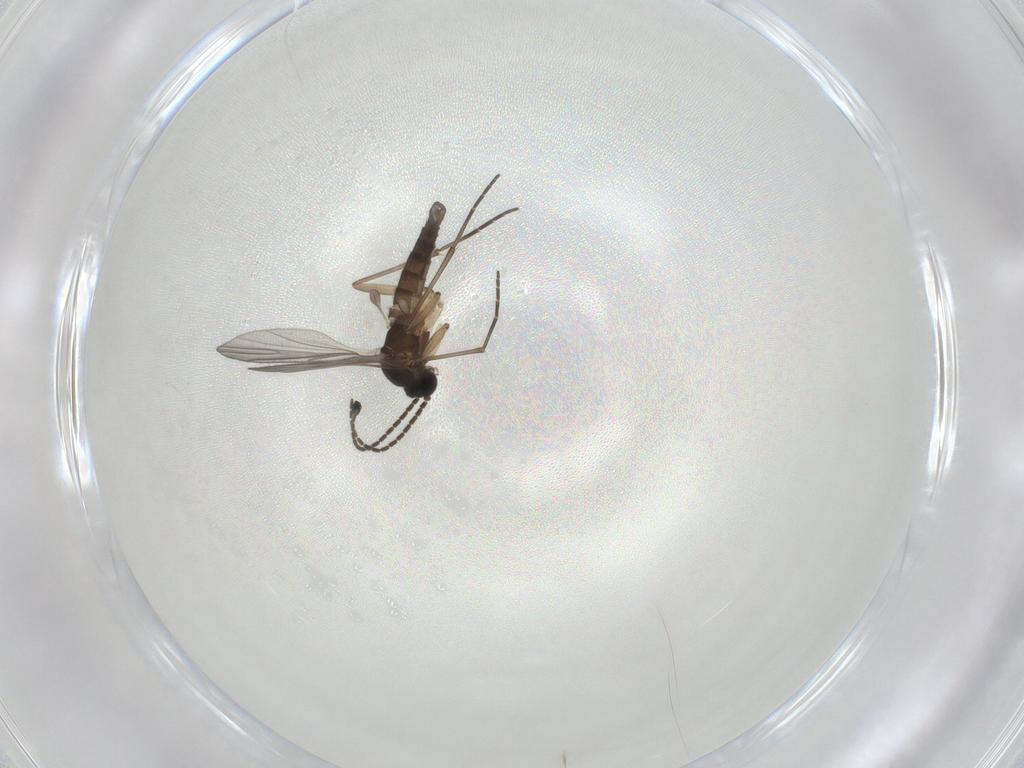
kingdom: Animalia
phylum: Arthropoda
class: Insecta
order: Diptera
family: Sciaridae
